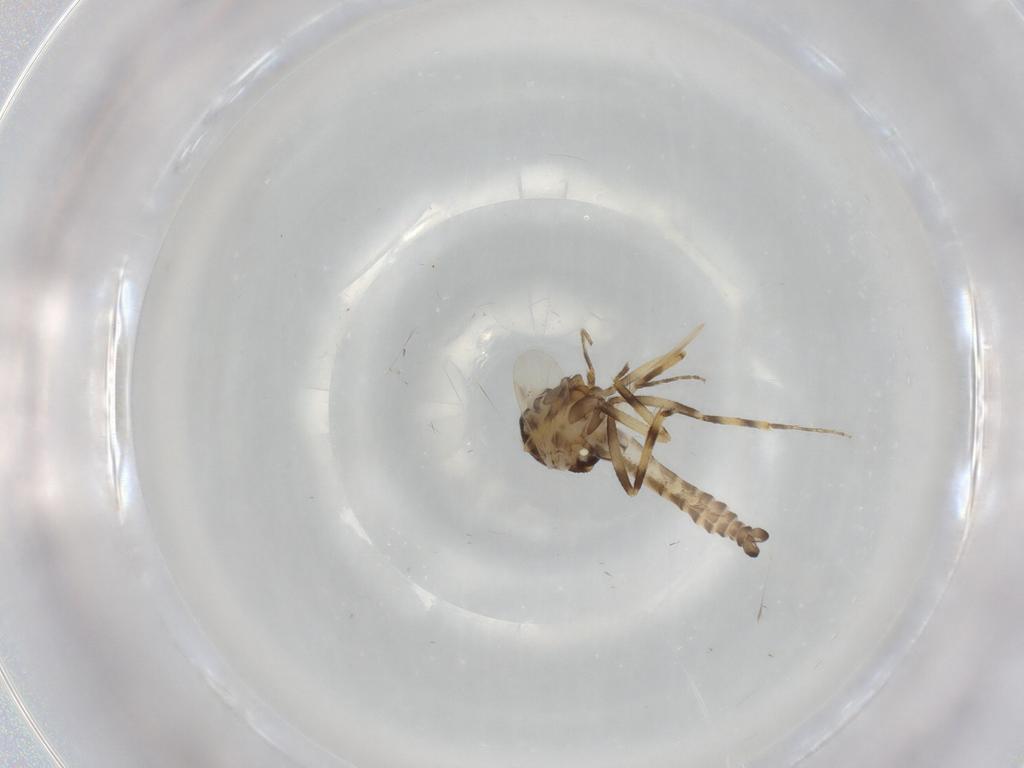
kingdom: Animalia
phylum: Arthropoda
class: Insecta
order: Diptera
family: Ceratopogonidae
